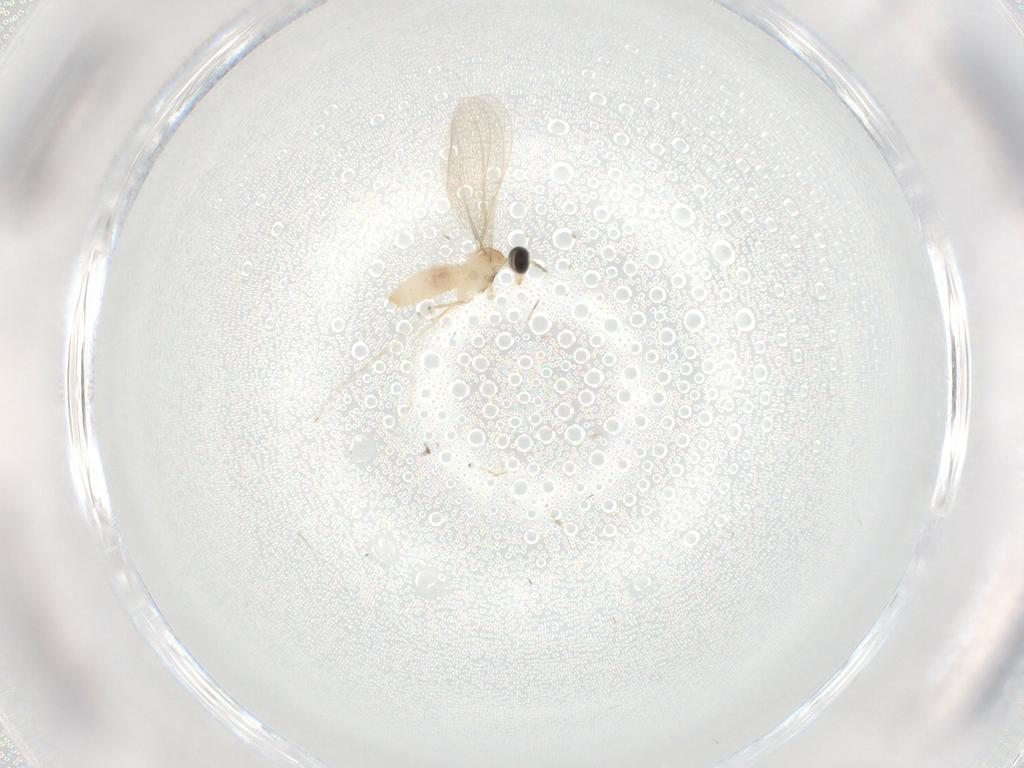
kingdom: Animalia
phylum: Arthropoda
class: Insecta
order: Diptera
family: Cecidomyiidae
